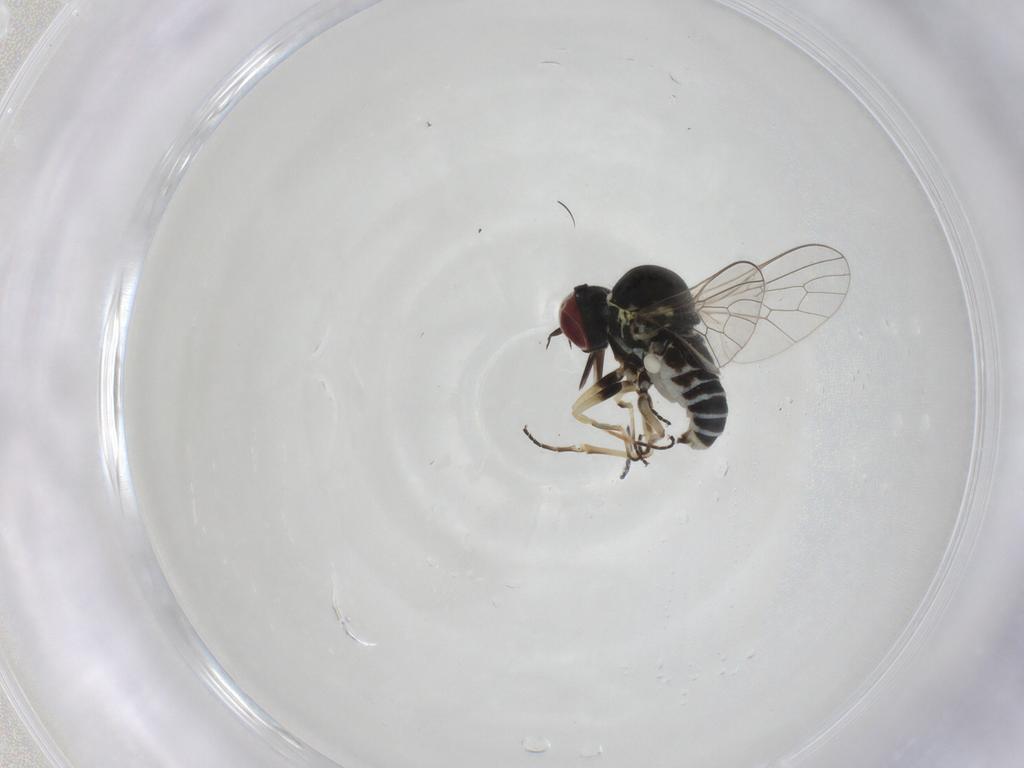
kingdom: Animalia
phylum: Arthropoda
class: Insecta
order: Diptera
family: Mythicomyiidae
